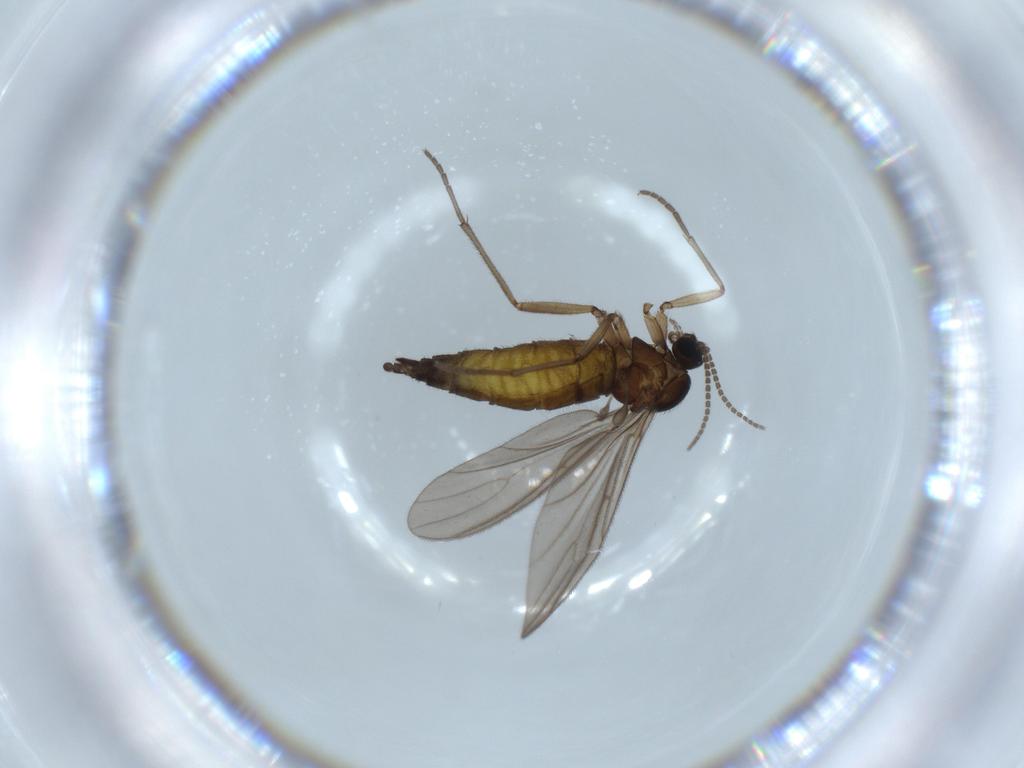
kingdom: Animalia
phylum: Arthropoda
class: Insecta
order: Diptera
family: Sciaridae
